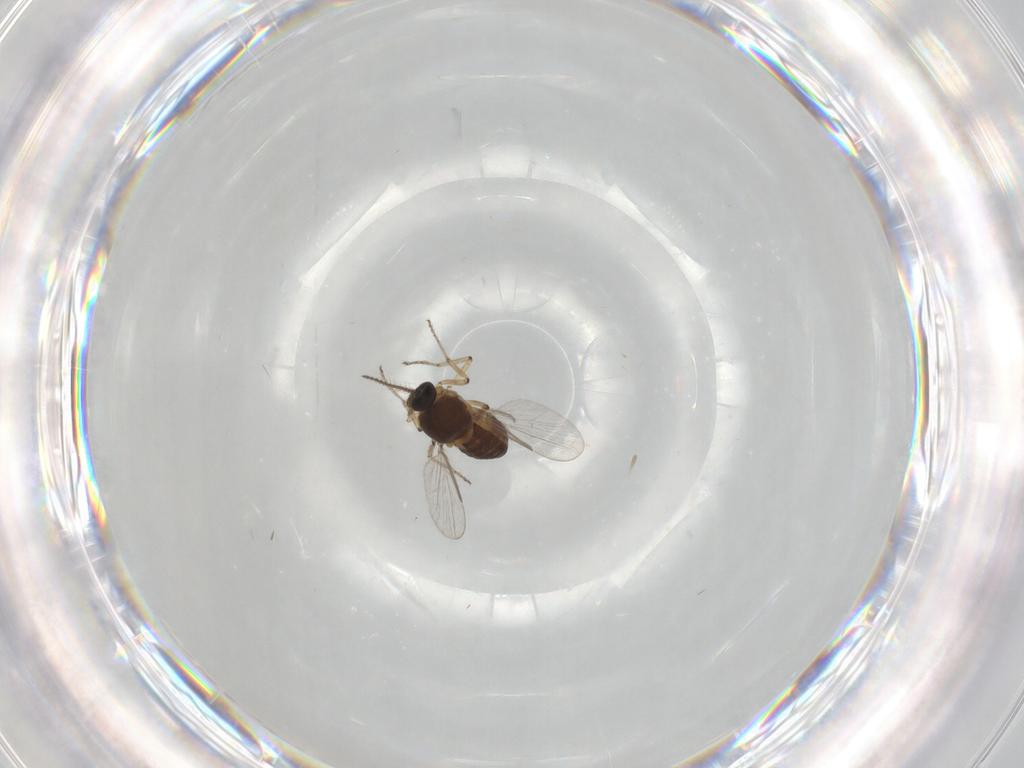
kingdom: Animalia
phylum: Arthropoda
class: Insecta
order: Diptera
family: Ceratopogonidae
